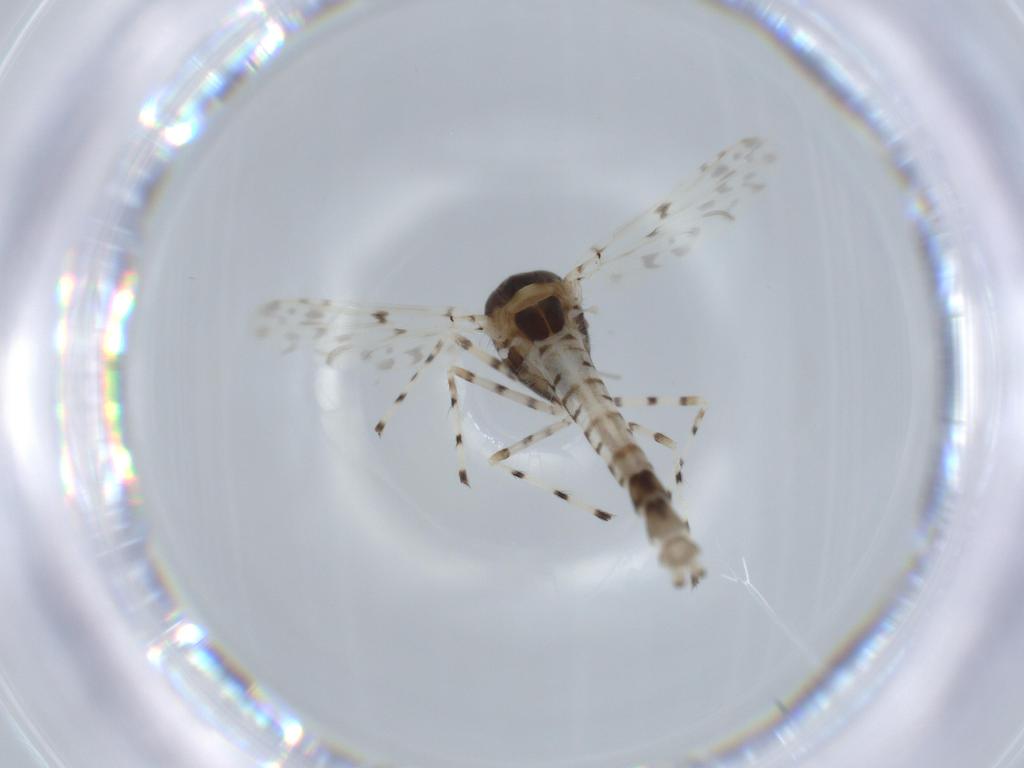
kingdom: Animalia
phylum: Arthropoda
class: Insecta
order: Diptera
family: Chironomidae
